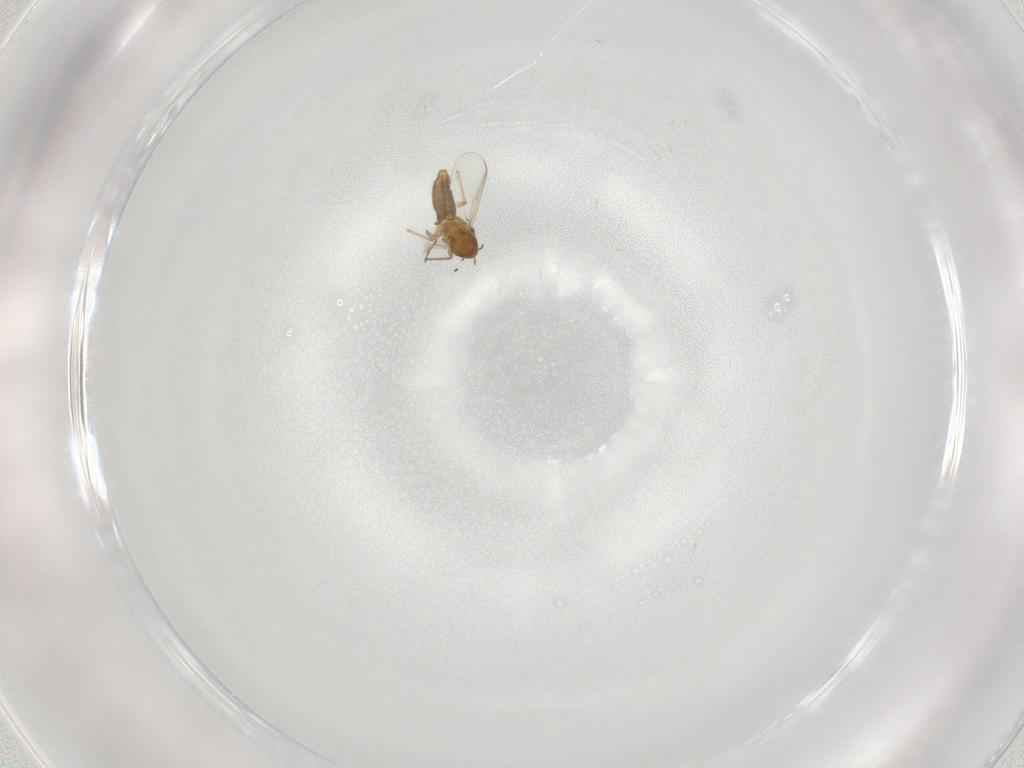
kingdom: Animalia
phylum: Arthropoda
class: Insecta
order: Diptera
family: Chironomidae
